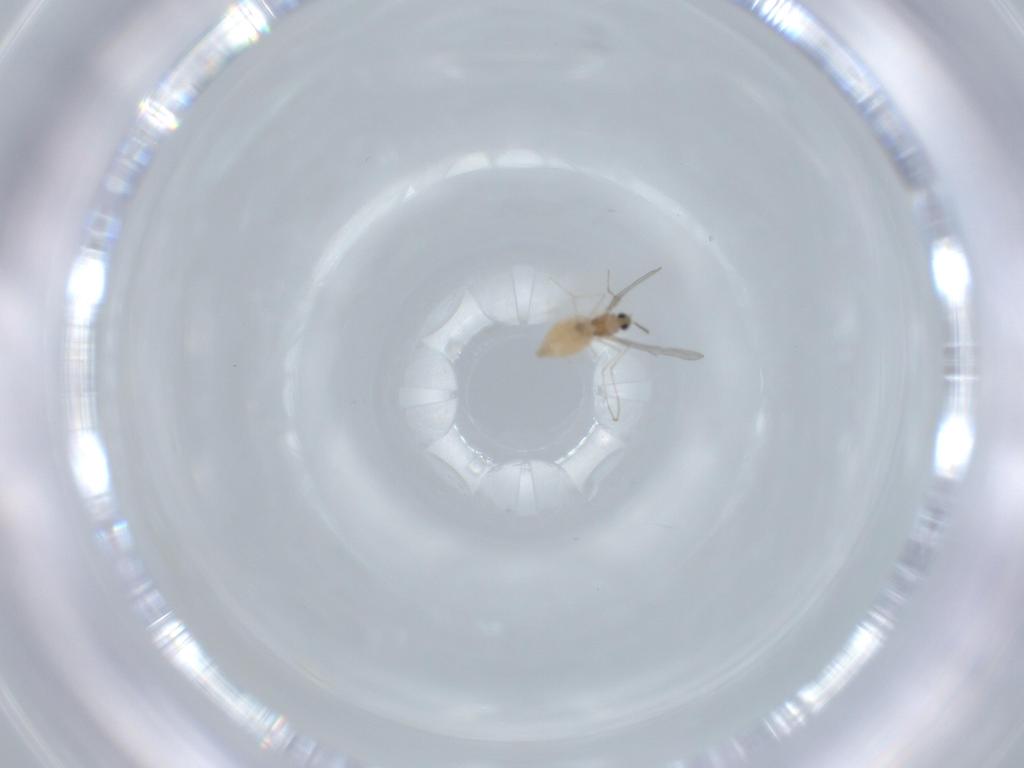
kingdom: Animalia
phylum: Arthropoda
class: Insecta
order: Diptera
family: Cecidomyiidae
